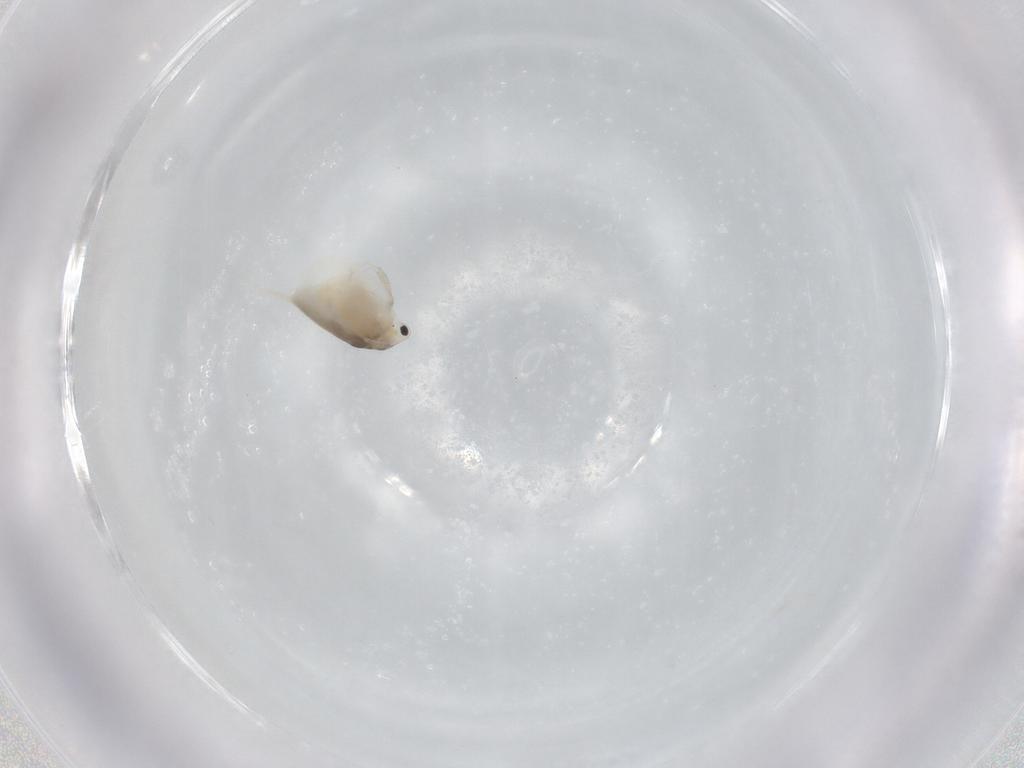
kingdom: Animalia
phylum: Arthropoda
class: Branchiopoda
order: Diplostraca
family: Daphniidae
